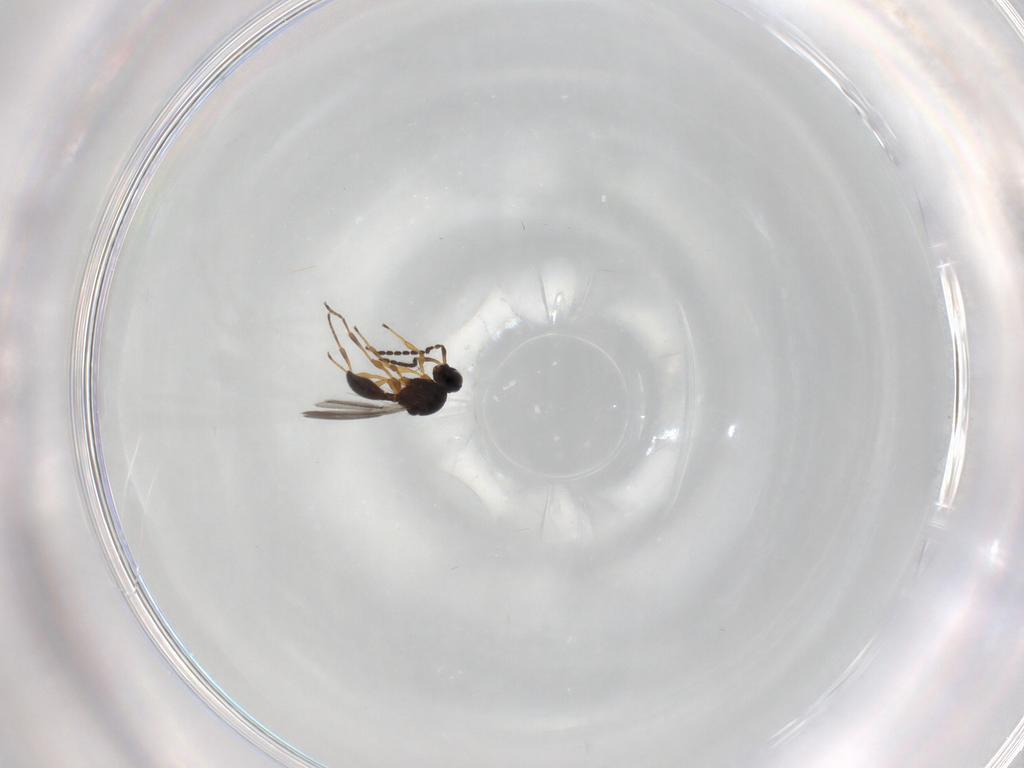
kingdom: Animalia
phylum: Arthropoda
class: Insecta
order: Hymenoptera
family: Platygastridae
